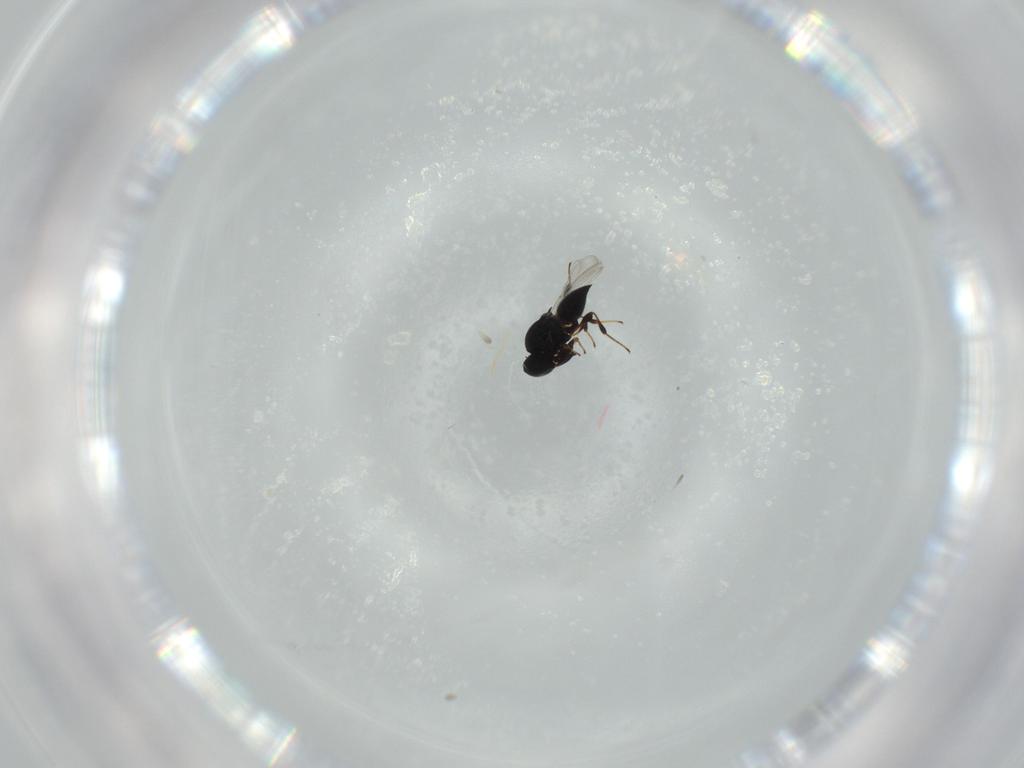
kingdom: Animalia
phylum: Arthropoda
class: Insecta
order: Hymenoptera
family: Platygastridae
